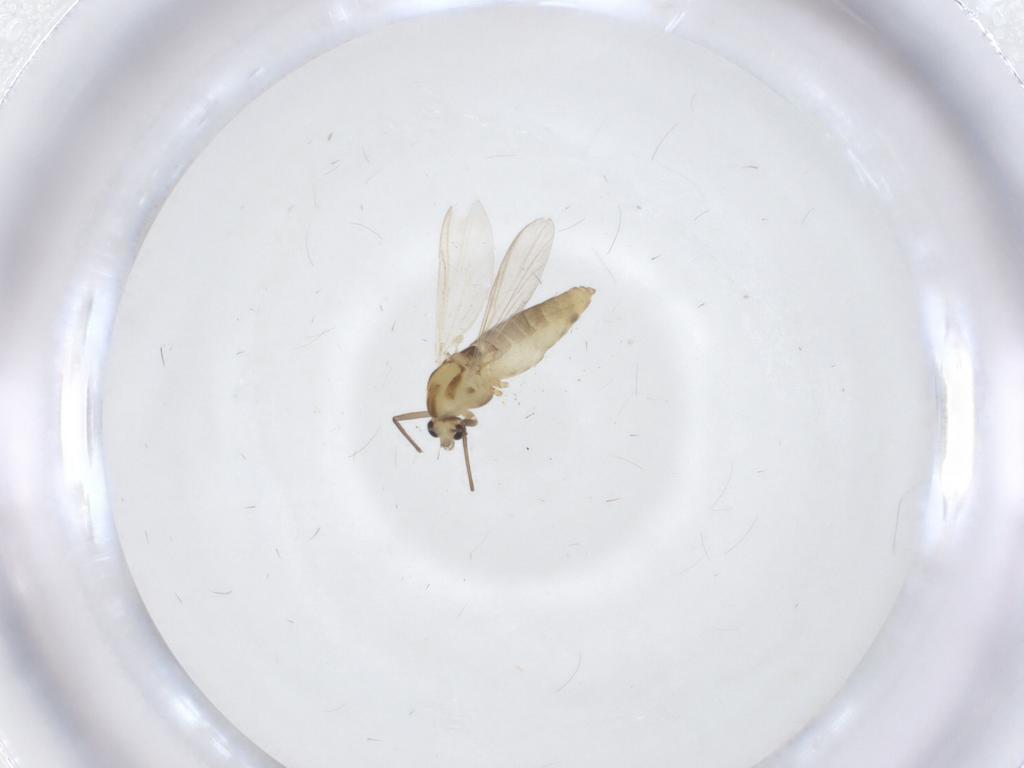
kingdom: Animalia
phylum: Arthropoda
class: Insecta
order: Diptera
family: Chironomidae
